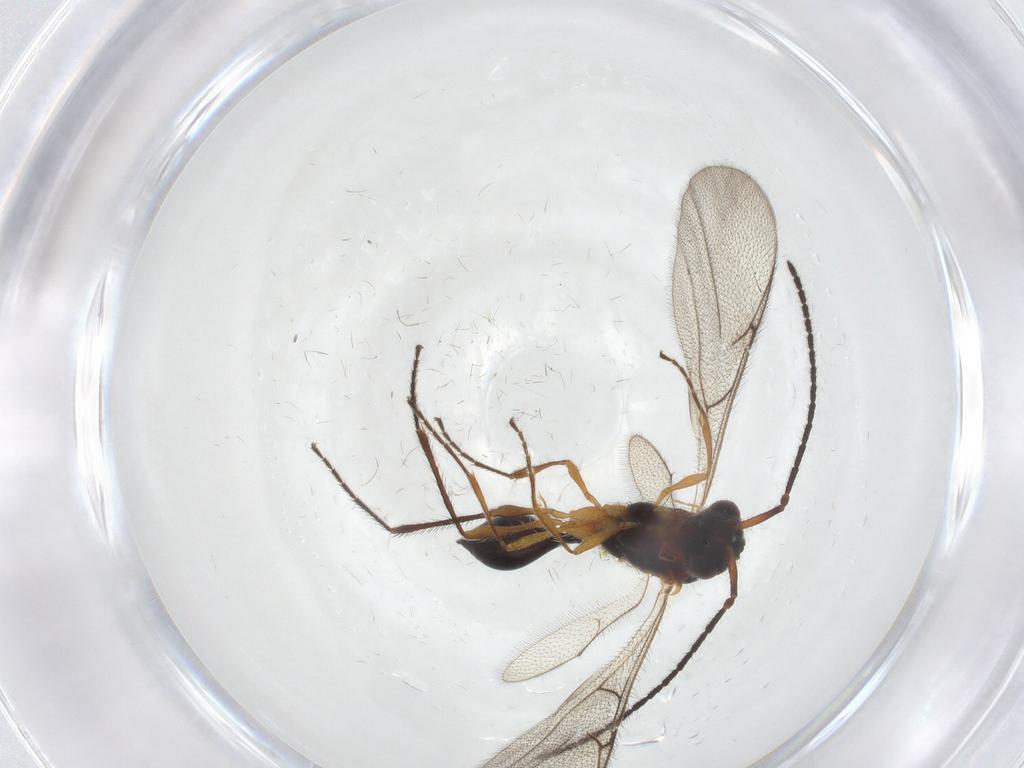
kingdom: Animalia
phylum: Arthropoda
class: Insecta
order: Hymenoptera
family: Diapriidae
